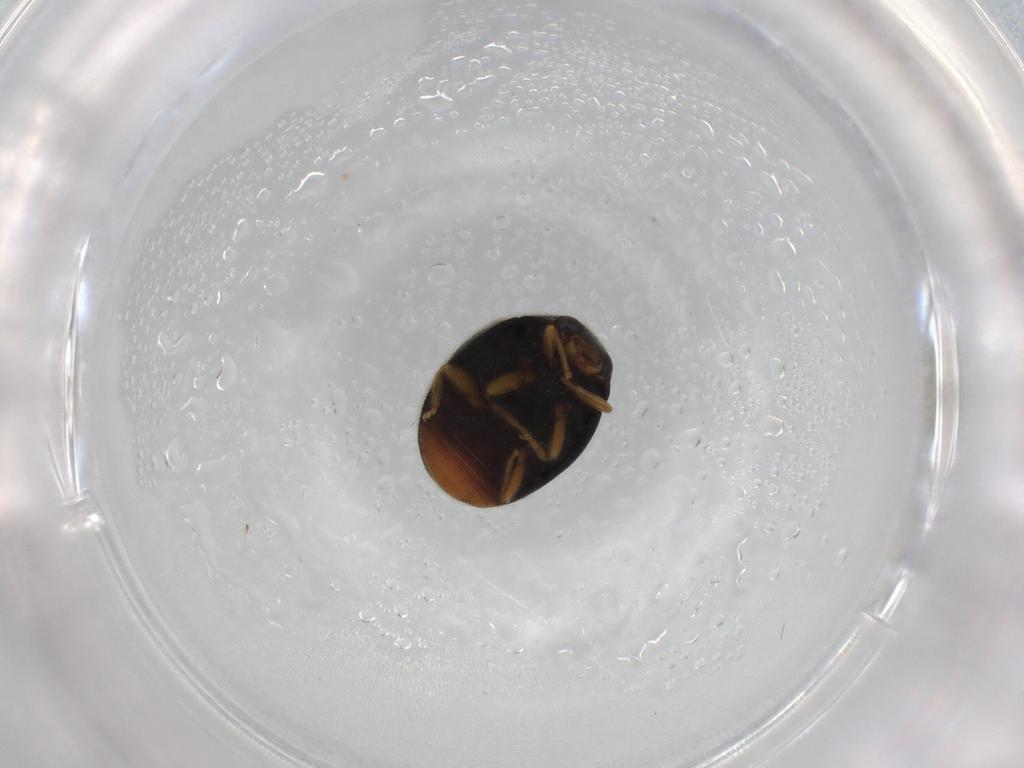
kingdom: Animalia
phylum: Arthropoda
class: Insecta
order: Coleoptera
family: Coccinellidae
